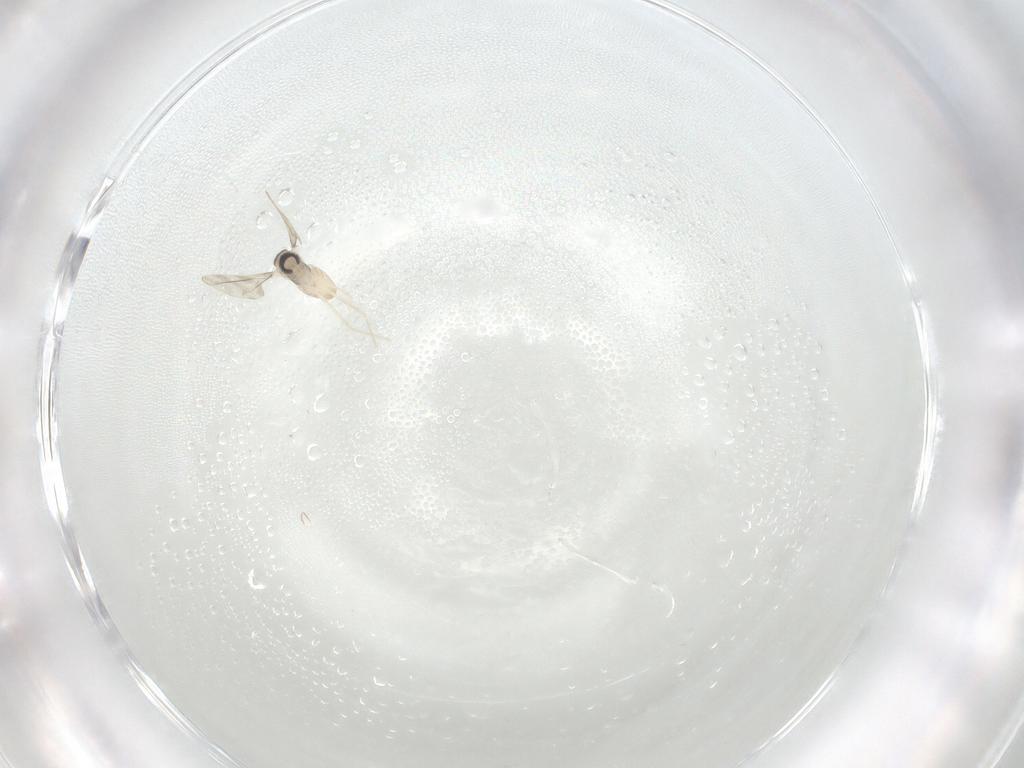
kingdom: Animalia
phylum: Arthropoda
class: Insecta
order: Diptera
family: Cecidomyiidae
